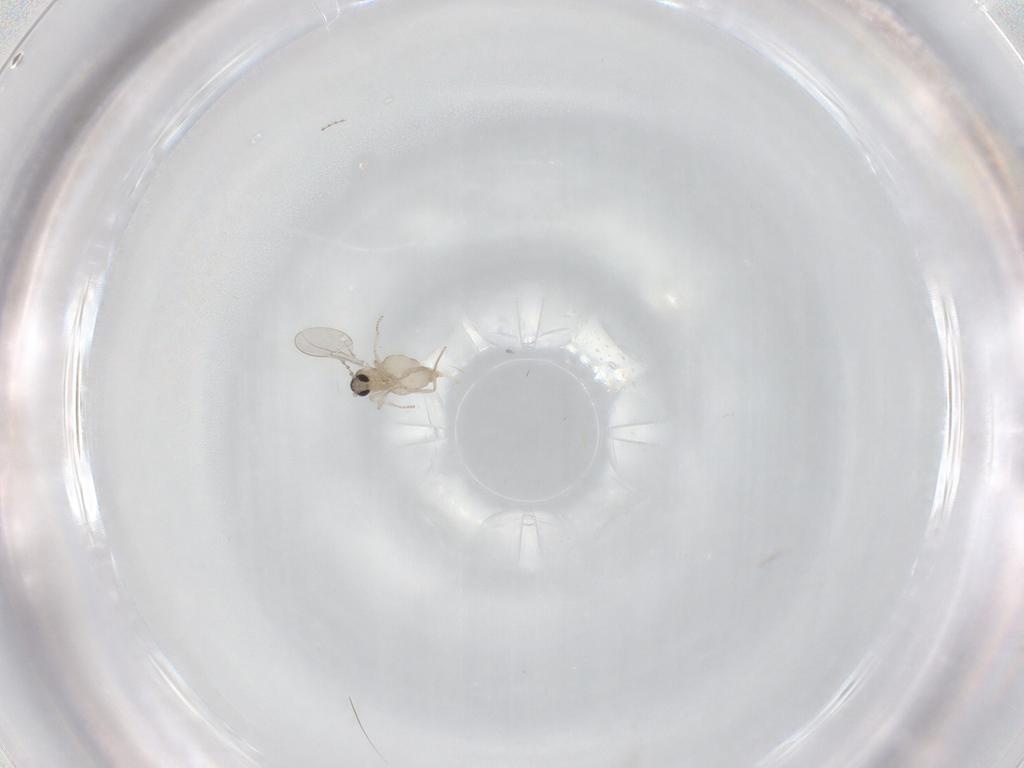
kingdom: Animalia
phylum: Arthropoda
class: Insecta
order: Diptera
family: Cecidomyiidae
